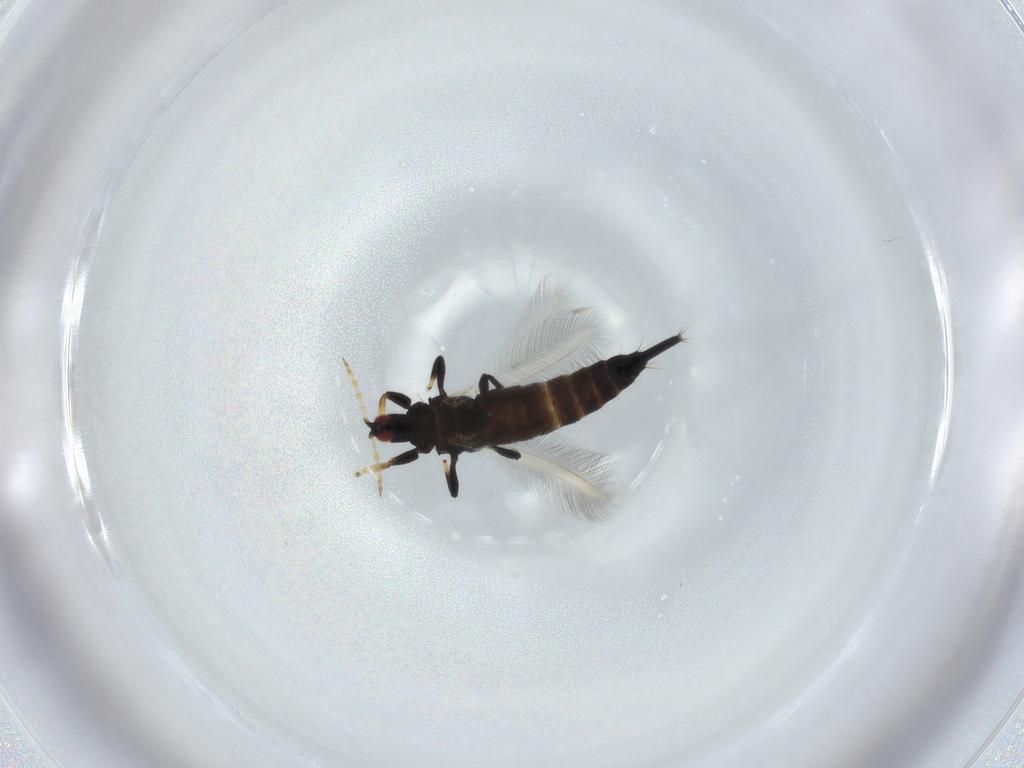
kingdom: Animalia
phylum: Arthropoda
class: Insecta
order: Thysanoptera
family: Phlaeothripidae
